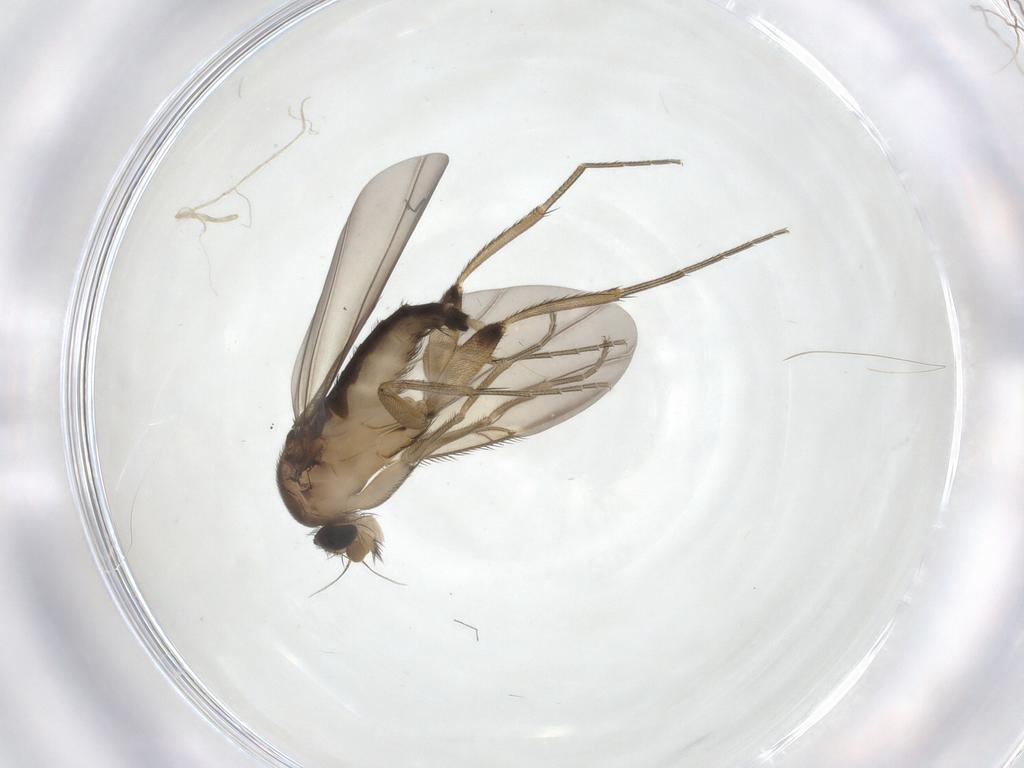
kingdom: Animalia
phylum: Arthropoda
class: Insecta
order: Diptera
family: Phoridae
